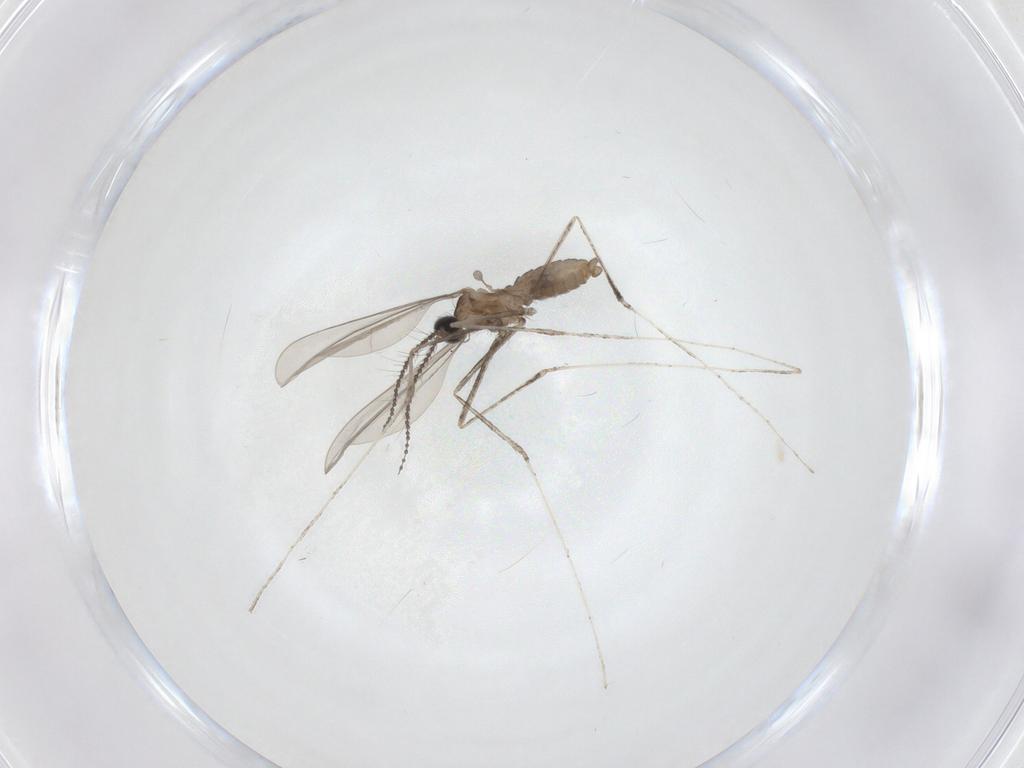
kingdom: Animalia
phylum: Arthropoda
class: Insecta
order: Diptera
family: Cecidomyiidae
